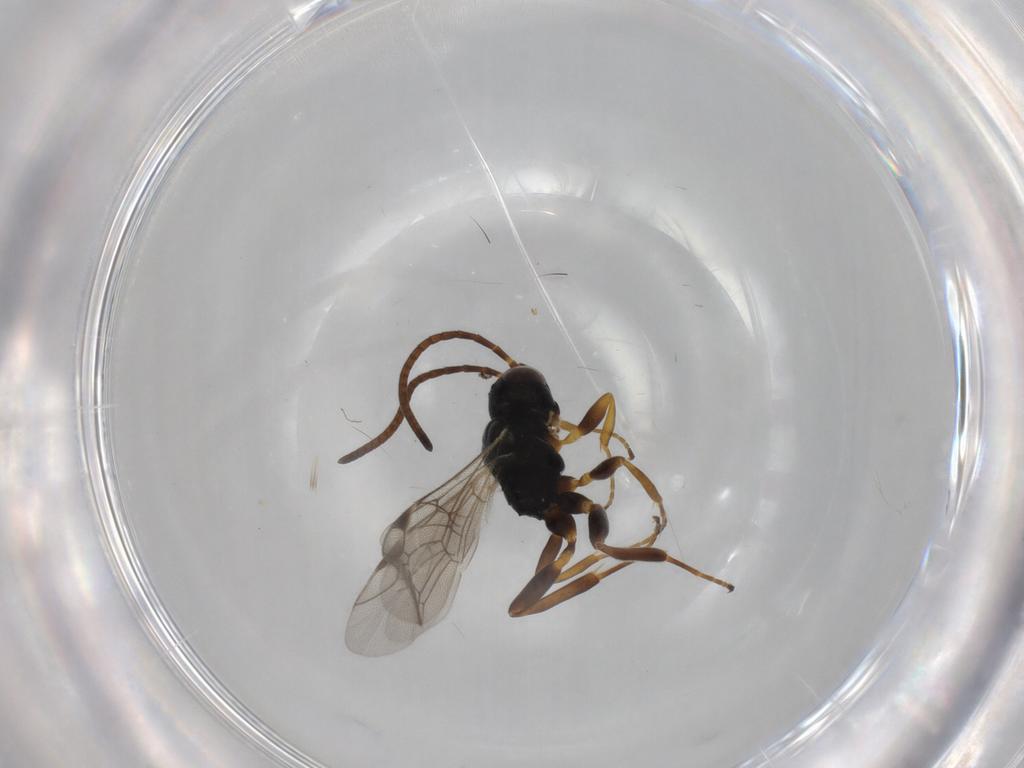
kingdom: Animalia
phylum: Arthropoda
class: Insecta
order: Hymenoptera
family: Ichneumonidae
